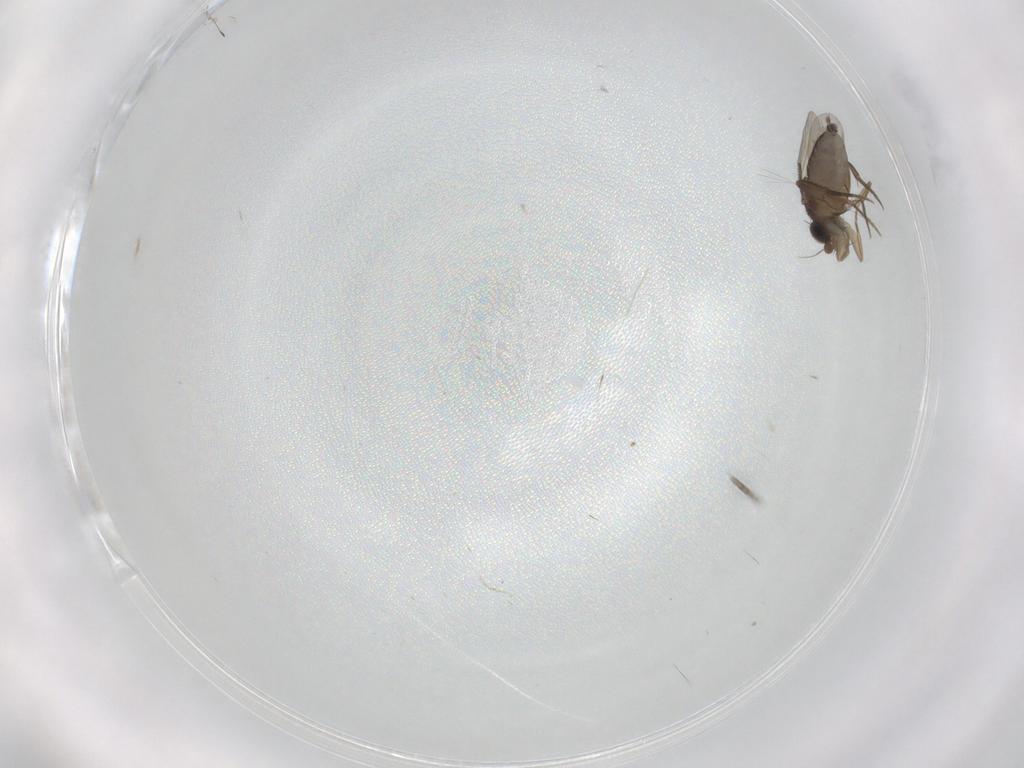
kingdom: Animalia
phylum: Arthropoda
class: Insecta
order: Diptera
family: Phoridae
